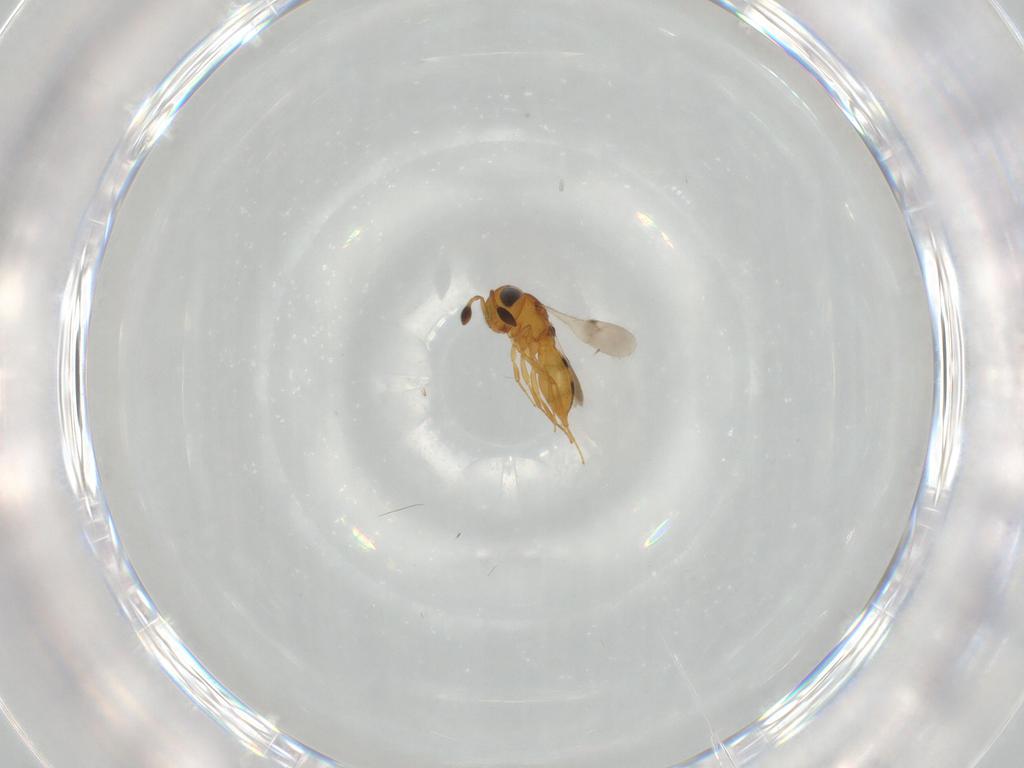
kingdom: Animalia
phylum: Arthropoda
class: Insecta
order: Hymenoptera
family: Scelionidae
